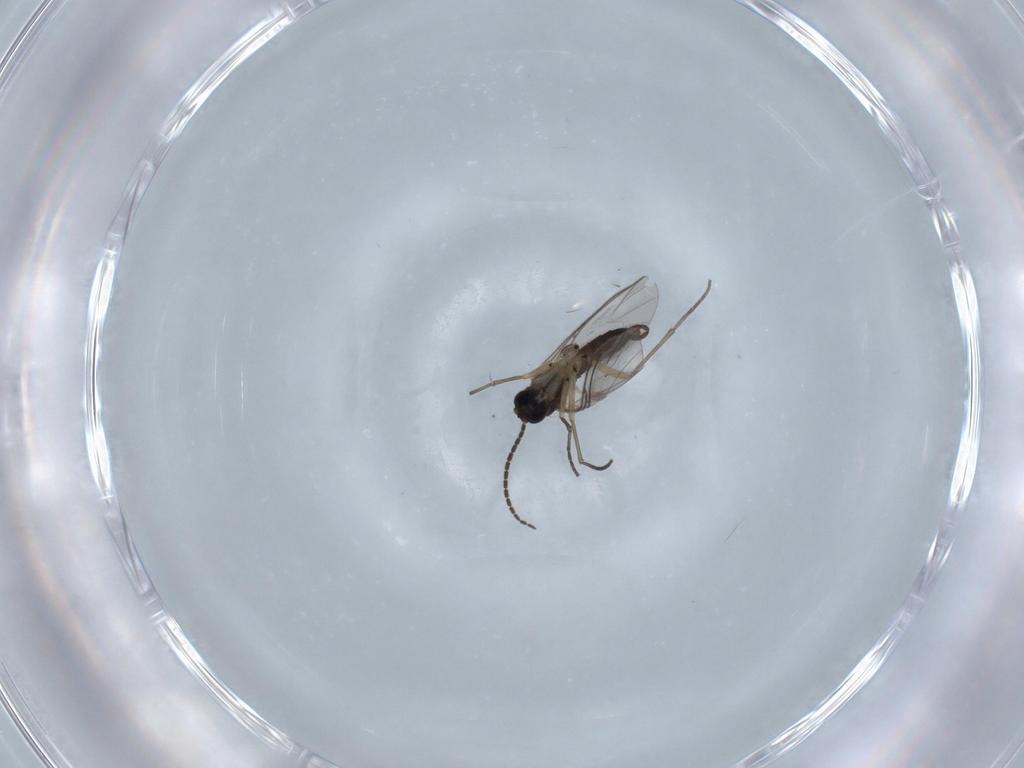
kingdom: Animalia
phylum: Arthropoda
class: Insecta
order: Diptera
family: Sciaridae
